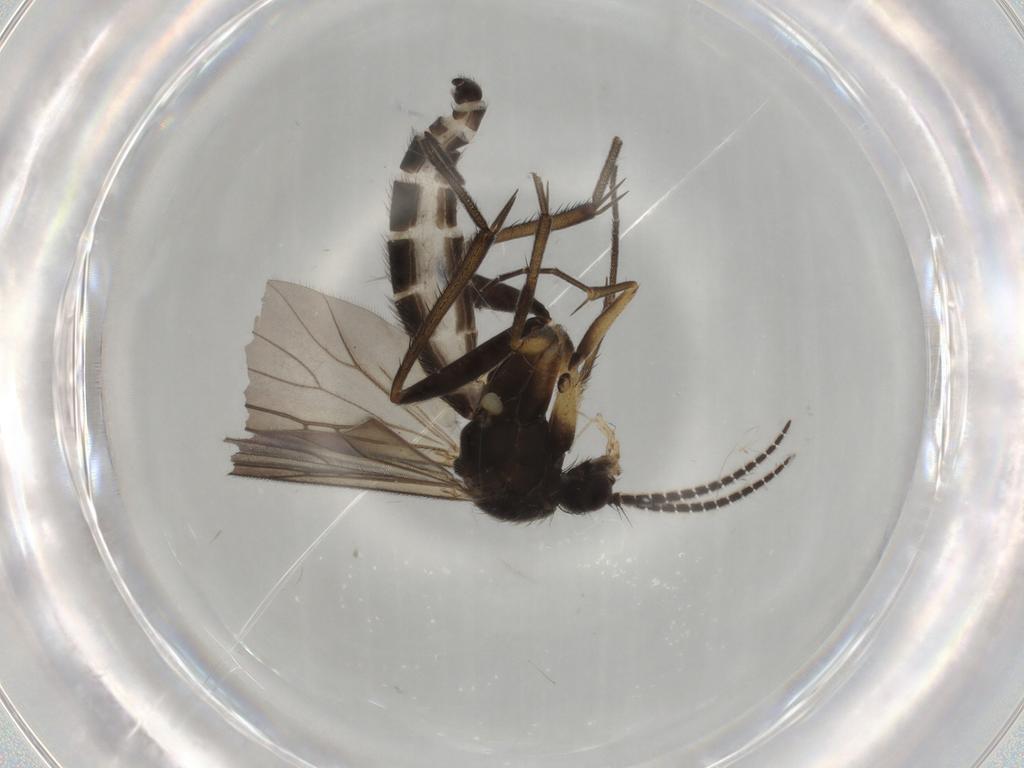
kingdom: Animalia
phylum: Arthropoda
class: Insecta
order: Diptera
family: Mycetophilidae
